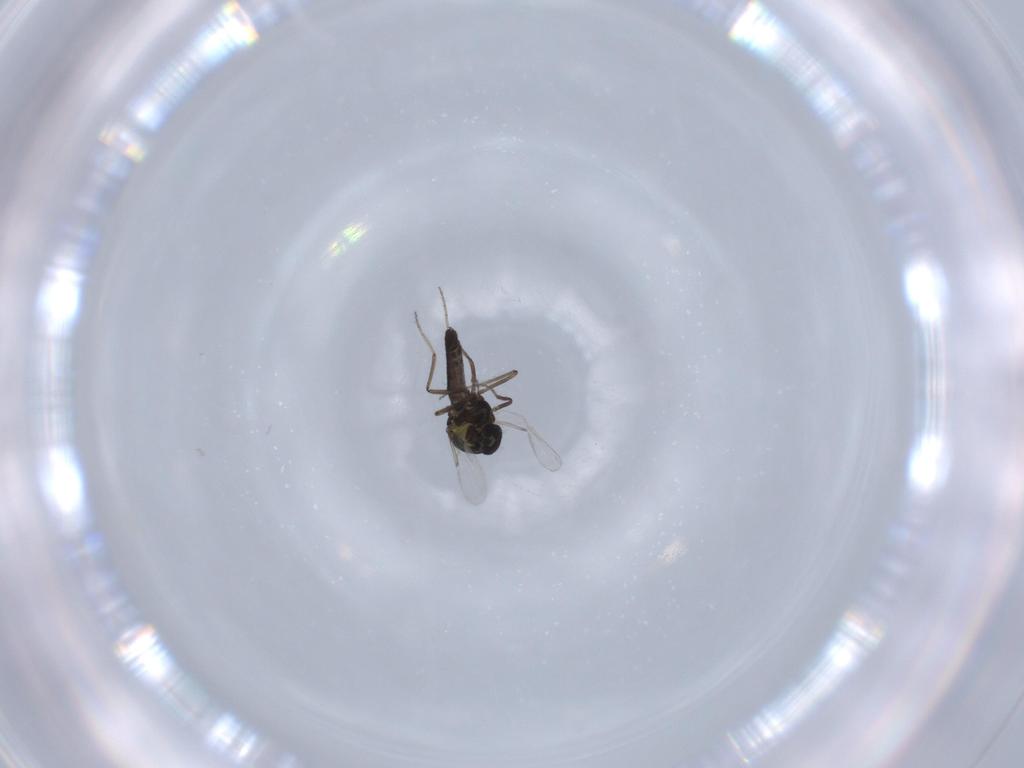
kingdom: Animalia
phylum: Arthropoda
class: Insecta
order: Diptera
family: Ceratopogonidae
